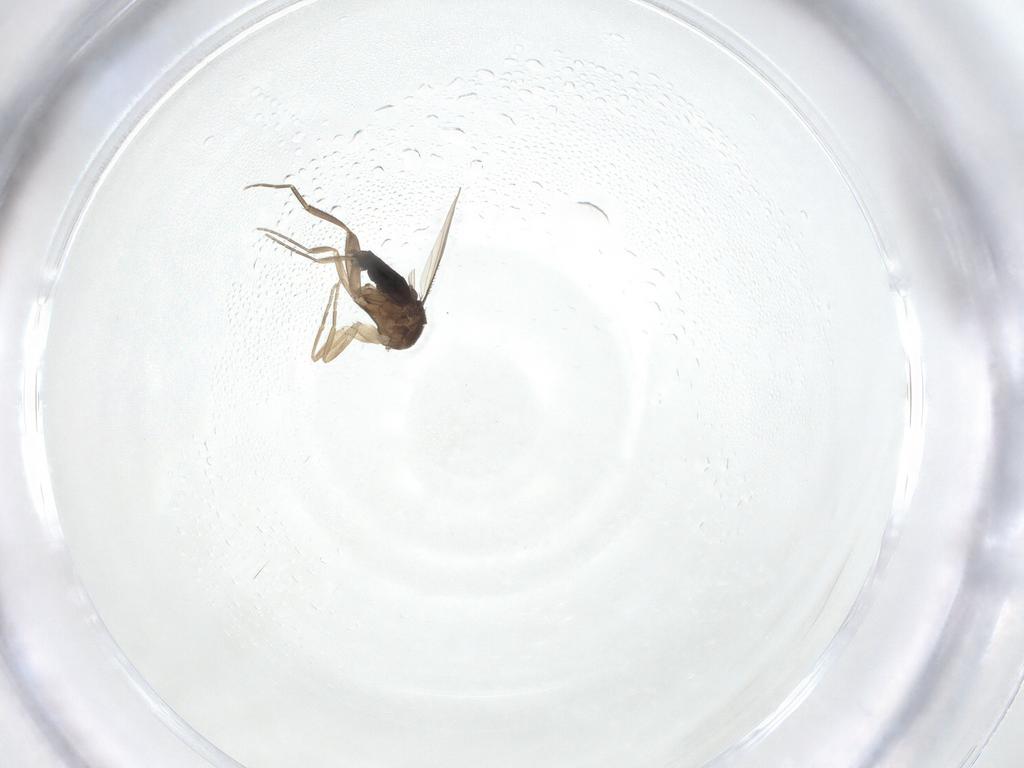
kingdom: Animalia
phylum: Arthropoda
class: Insecta
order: Diptera
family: Phoridae
